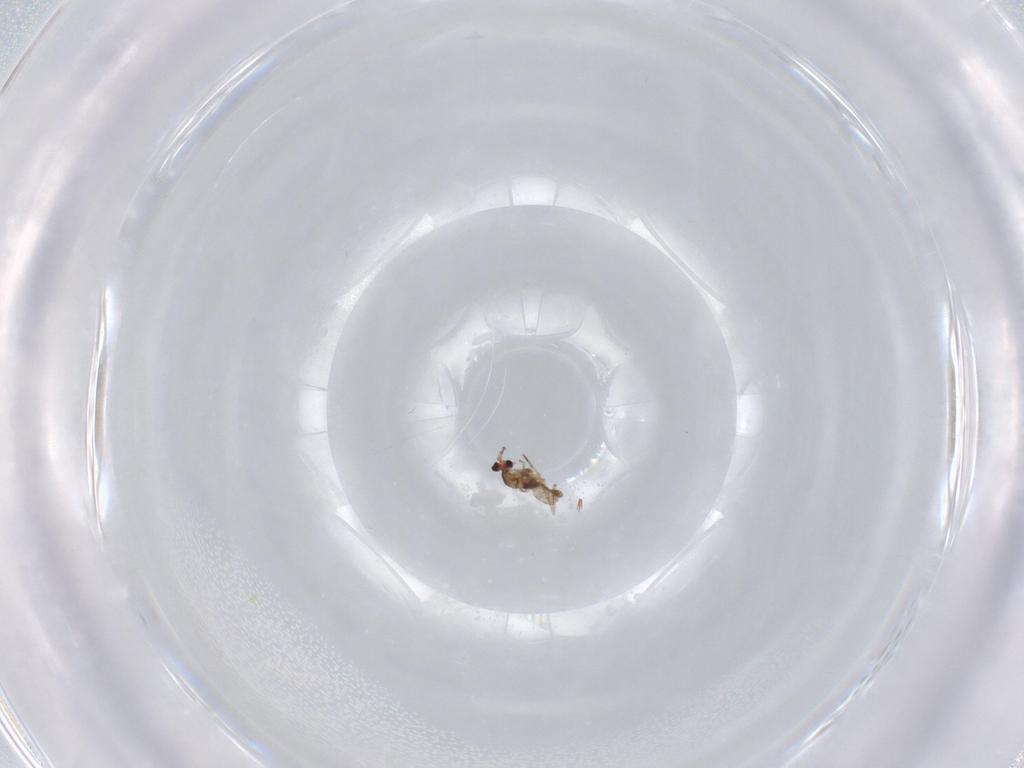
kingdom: Animalia
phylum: Arthropoda
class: Insecta
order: Diptera
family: Cecidomyiidae
